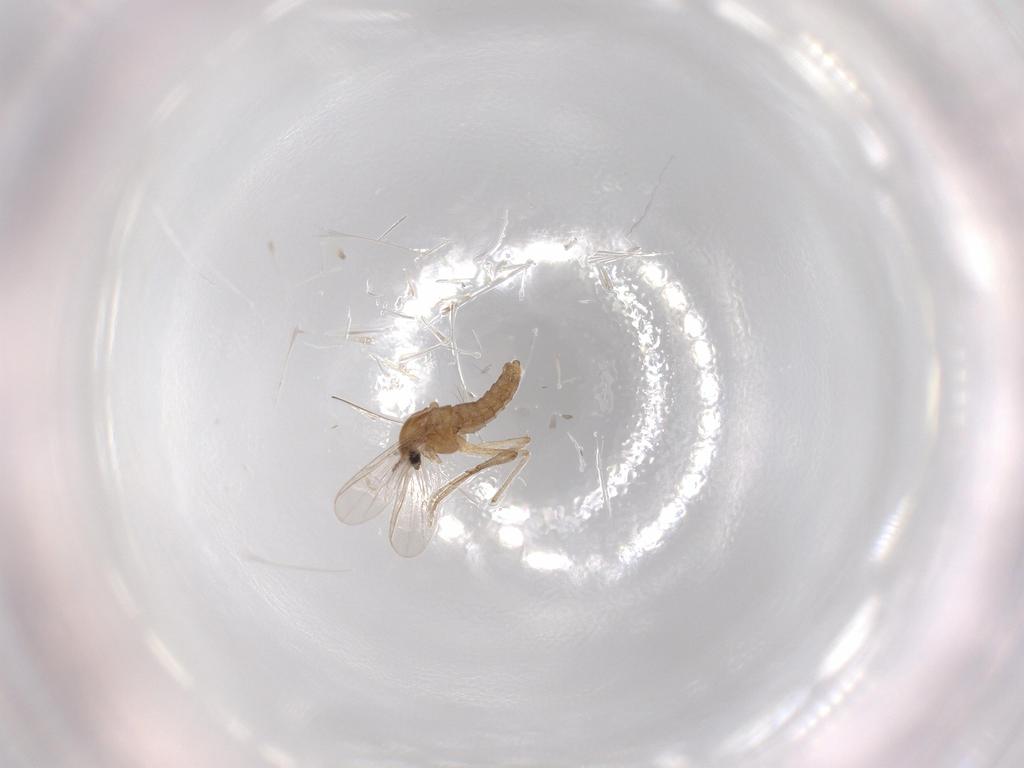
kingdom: Animalia
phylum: Arthropoda
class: Insecta
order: Diptera
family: Chironomidae
